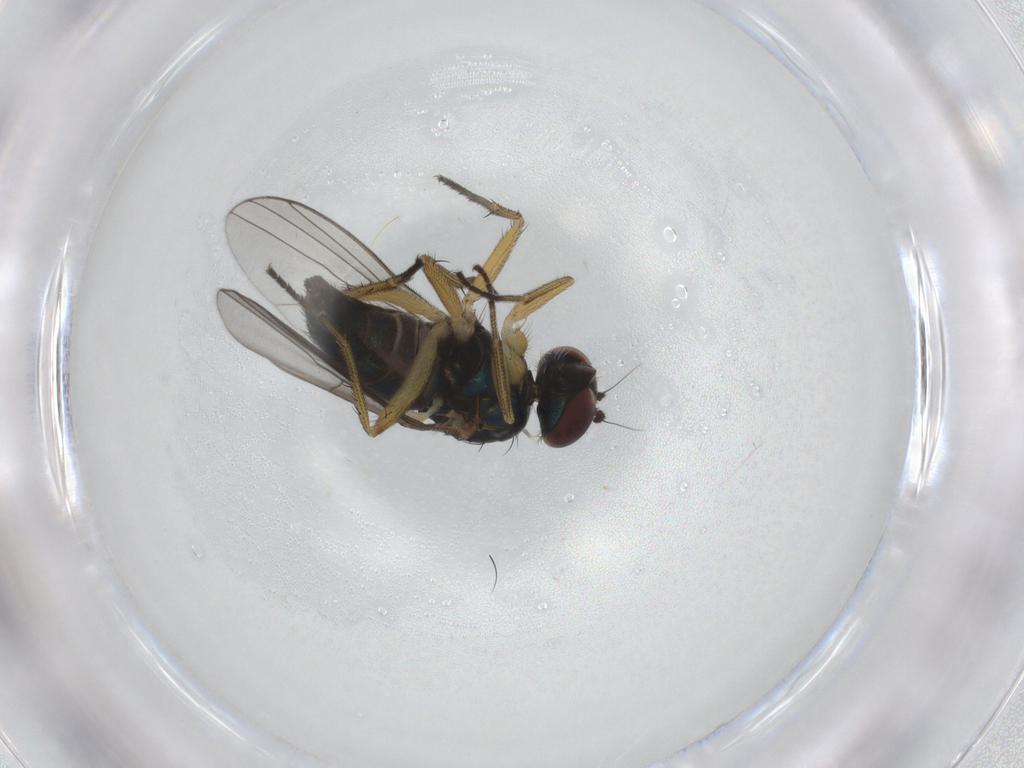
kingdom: Animalia
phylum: Arthropoda
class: Insecta
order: Diptera
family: Dolichopodidae
